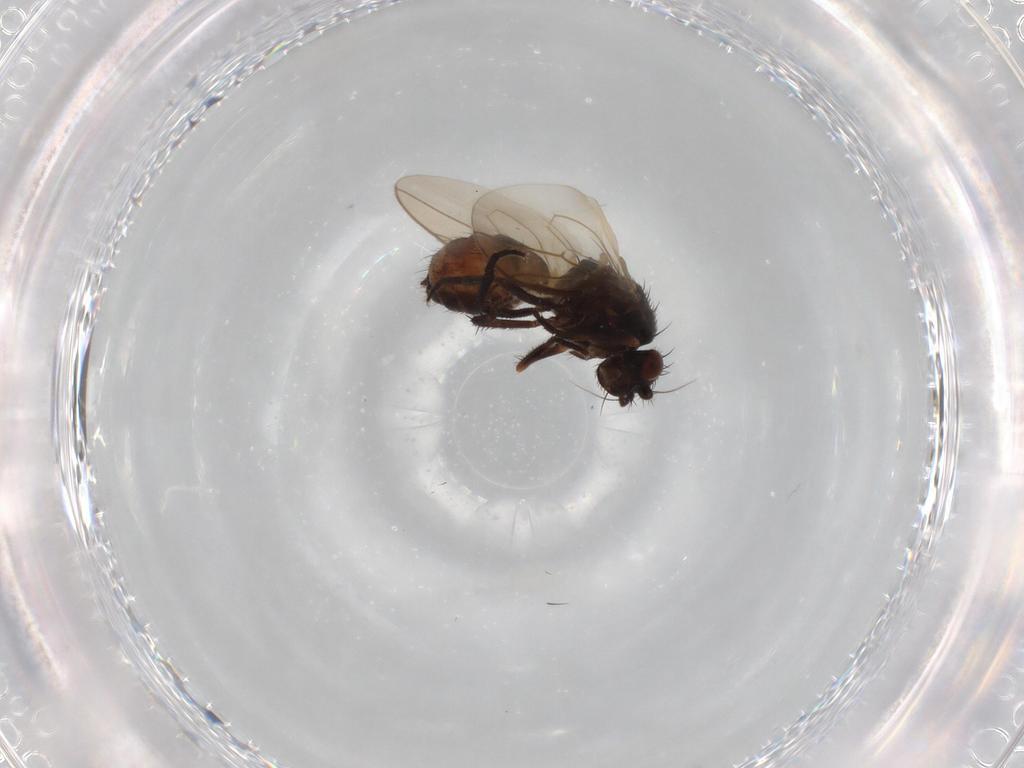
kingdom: Animalia
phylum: Arthropoda
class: Insecta
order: Diptera
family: Sphaeroceridae
